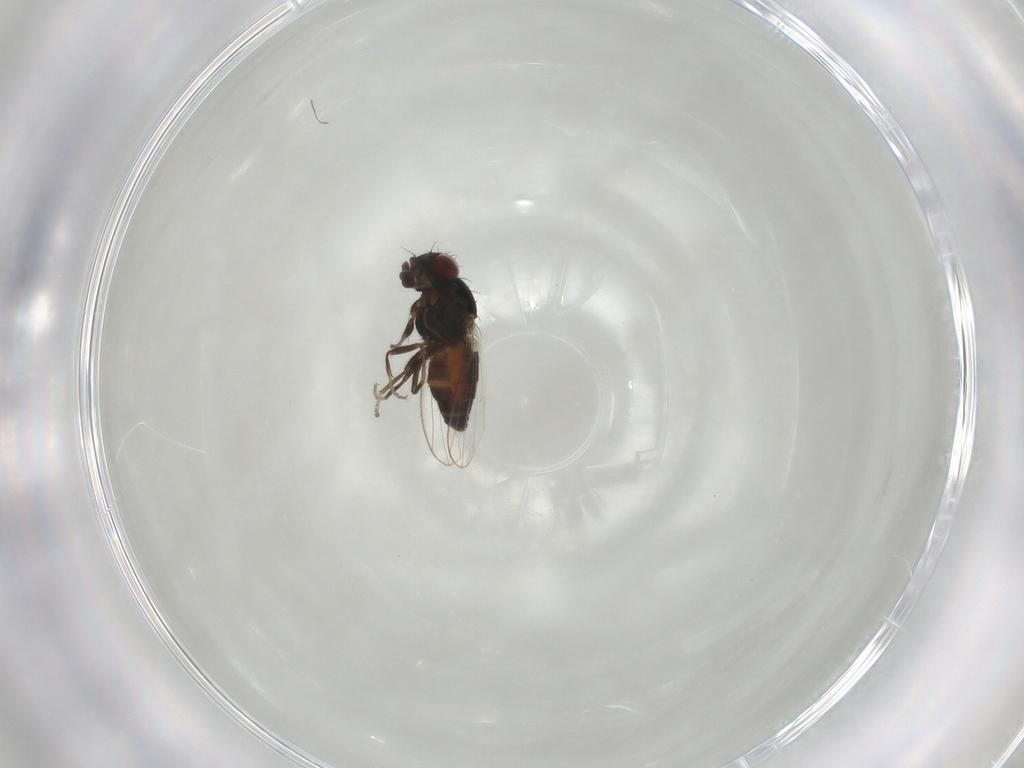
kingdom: Animalia
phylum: Arthropoda
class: Insecta
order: Diptera
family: Carnidae
